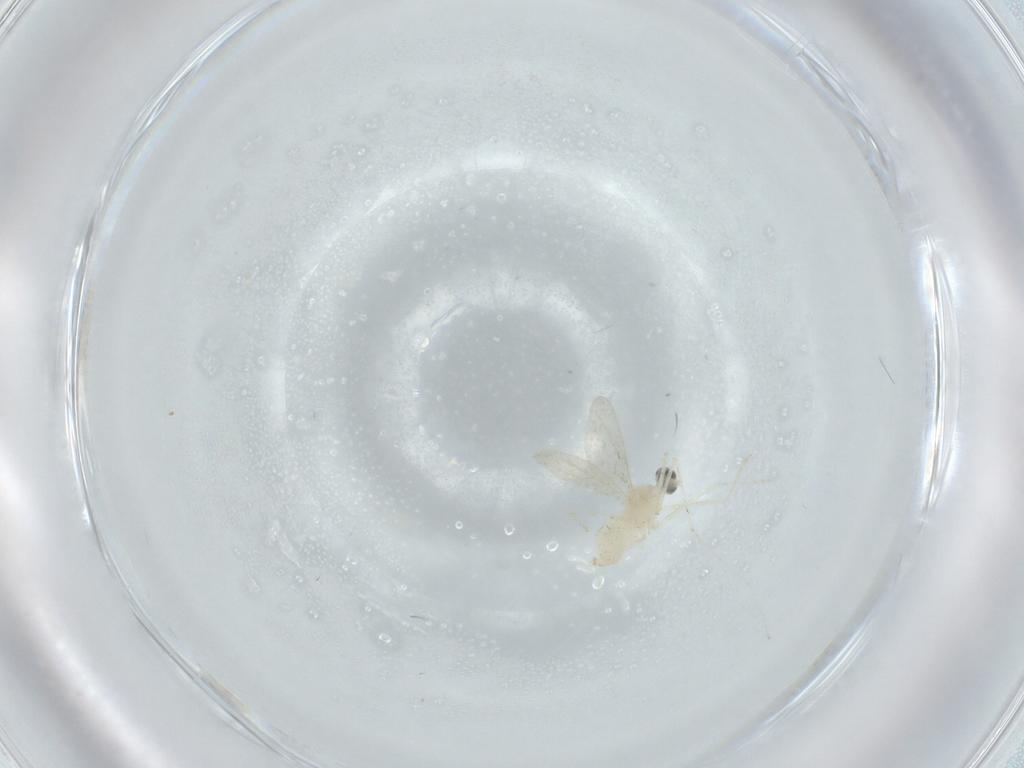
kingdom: Animalia
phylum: Arthropoda
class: Insecta
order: Diptera
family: Cecidomyiidae
